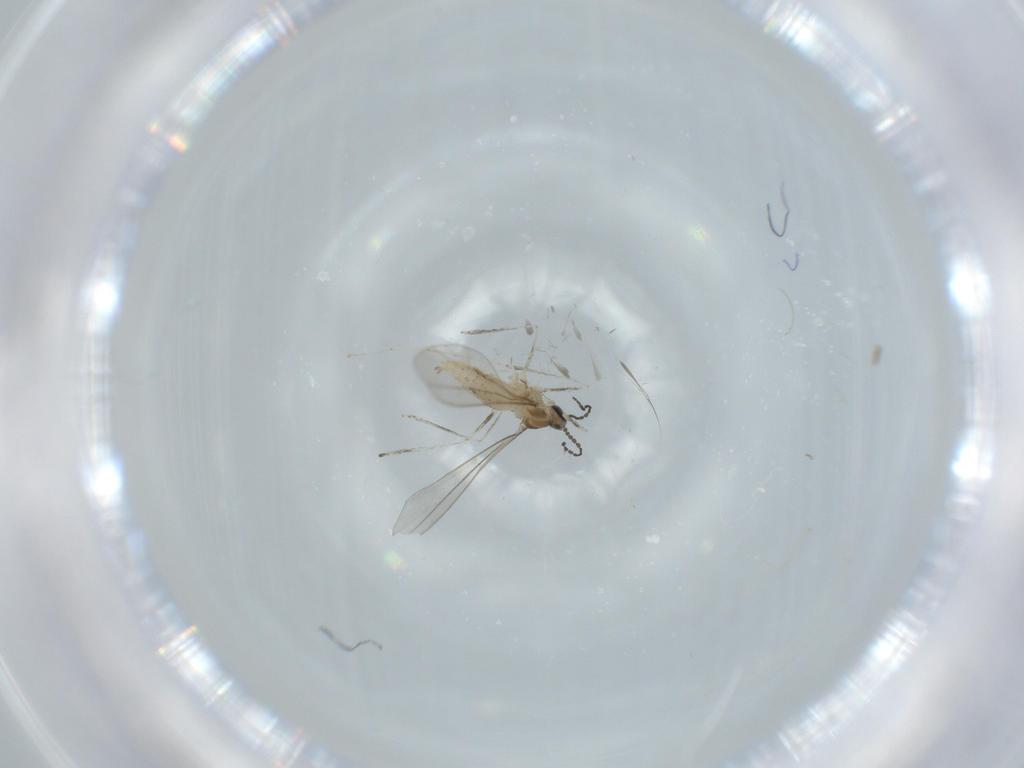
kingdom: Animalia
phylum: Arthropoda
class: Insecta
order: Diptera
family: Cecidomyiidae
